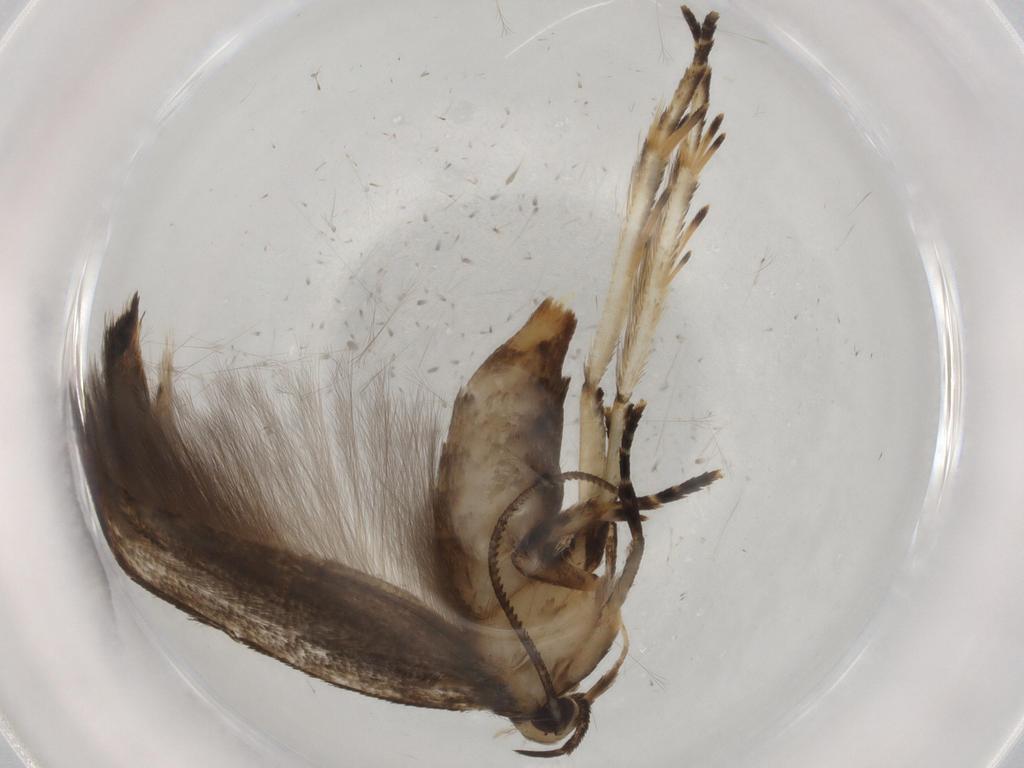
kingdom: Animalia
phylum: Arthropoda
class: Insecta
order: Lepidoptera
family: Cosmopterigidae
